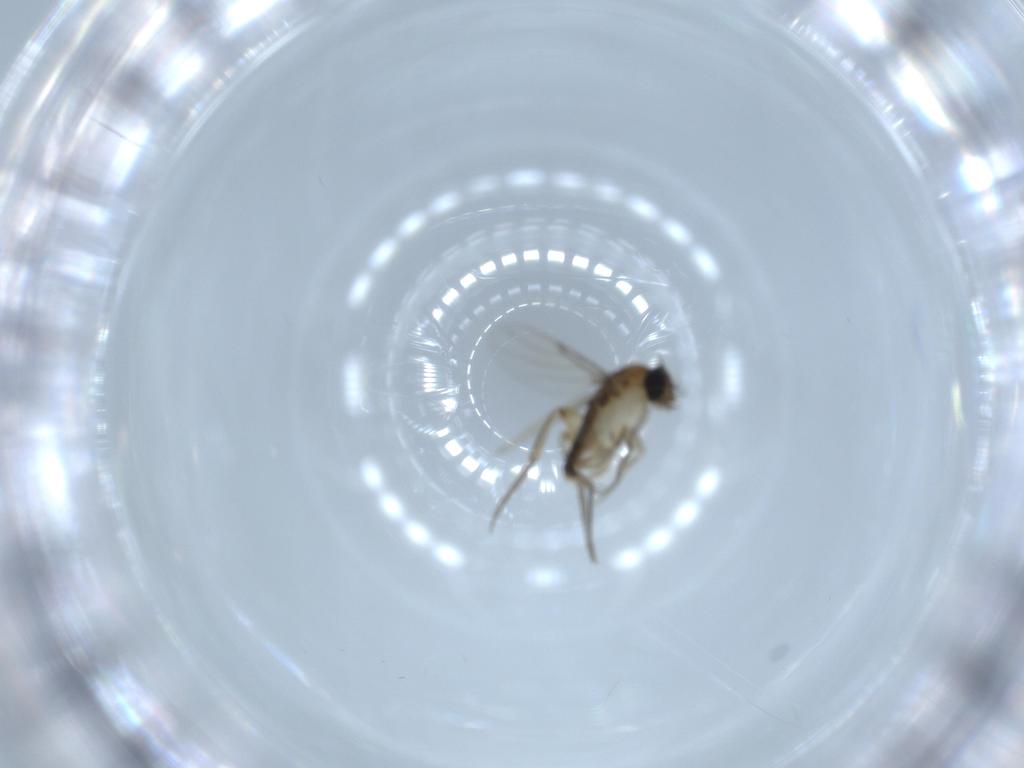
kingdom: Animalia
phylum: Arthropoda
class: Insecta
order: Diptera
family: Phoridae
